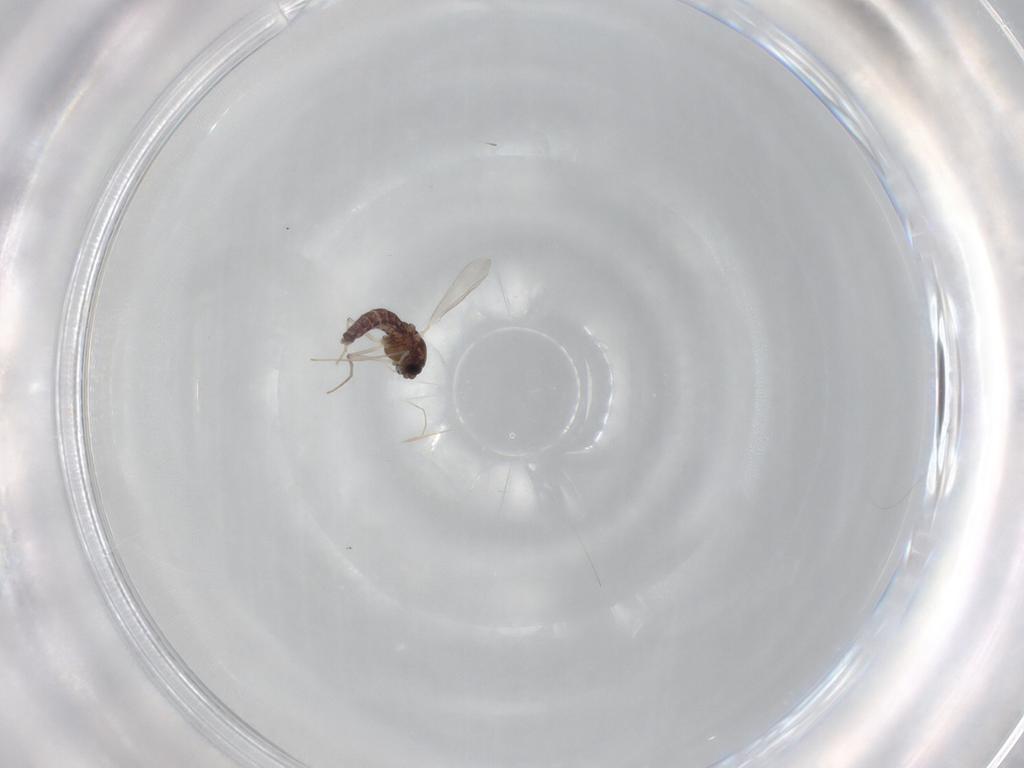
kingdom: Animalia
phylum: Arthropoda
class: Insecta
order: Diptera
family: Chironomidae
